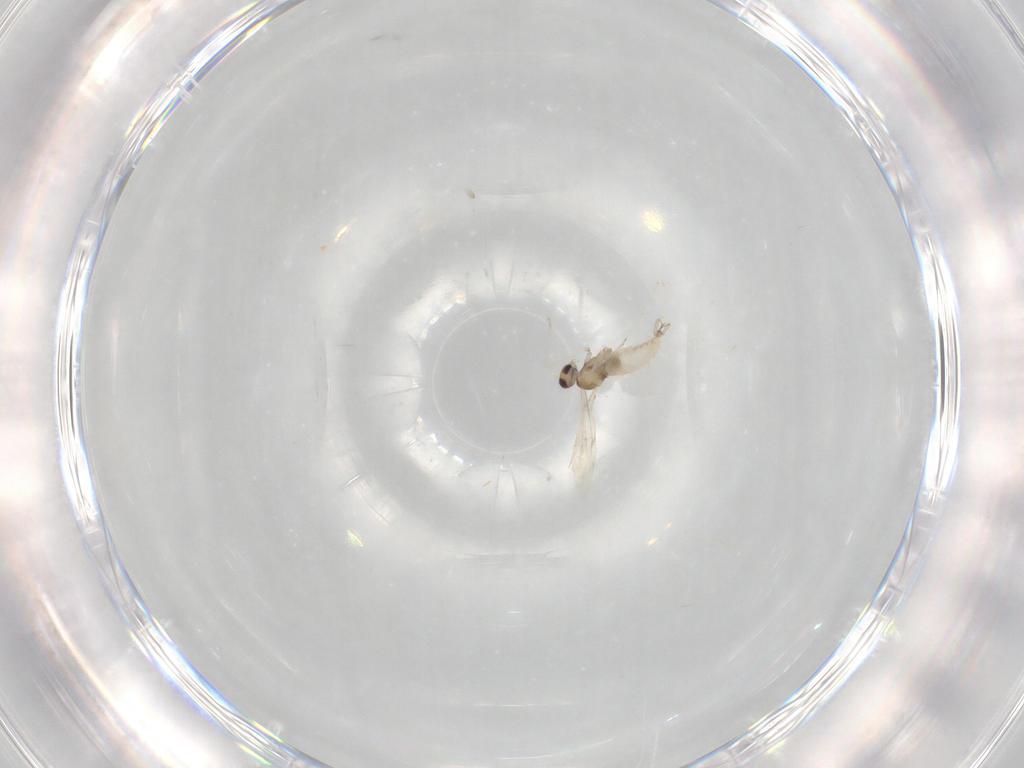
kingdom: Animalia
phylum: Arthropoda
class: Insecta
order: Diptera
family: Cecidomyiidae
